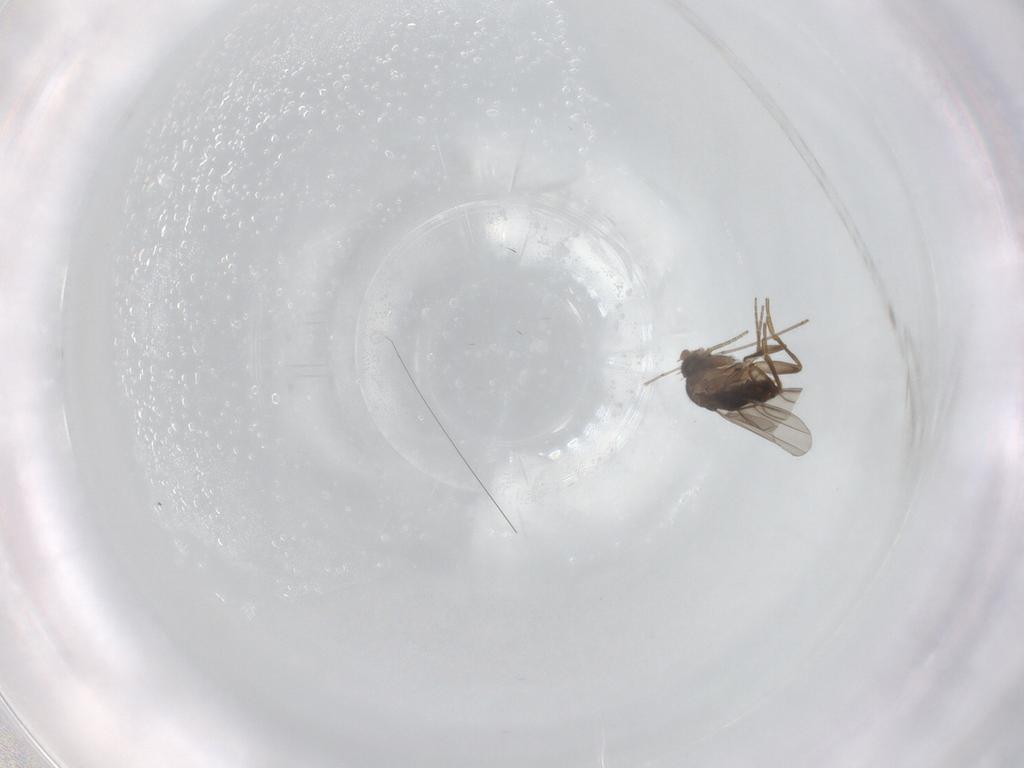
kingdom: Animalia
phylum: Arthropoda
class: Insecta
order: Diptera
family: Phoridae
